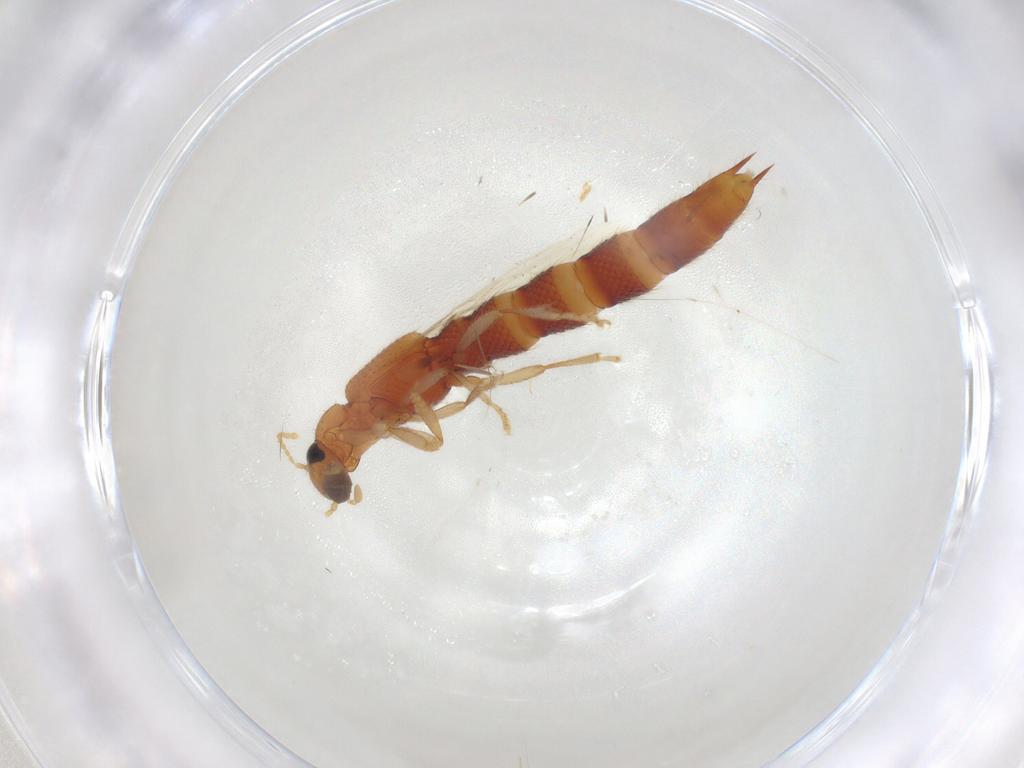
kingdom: Animalia
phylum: Arthropoda
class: Insecta
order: Coleoptera
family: Staphylinidae
